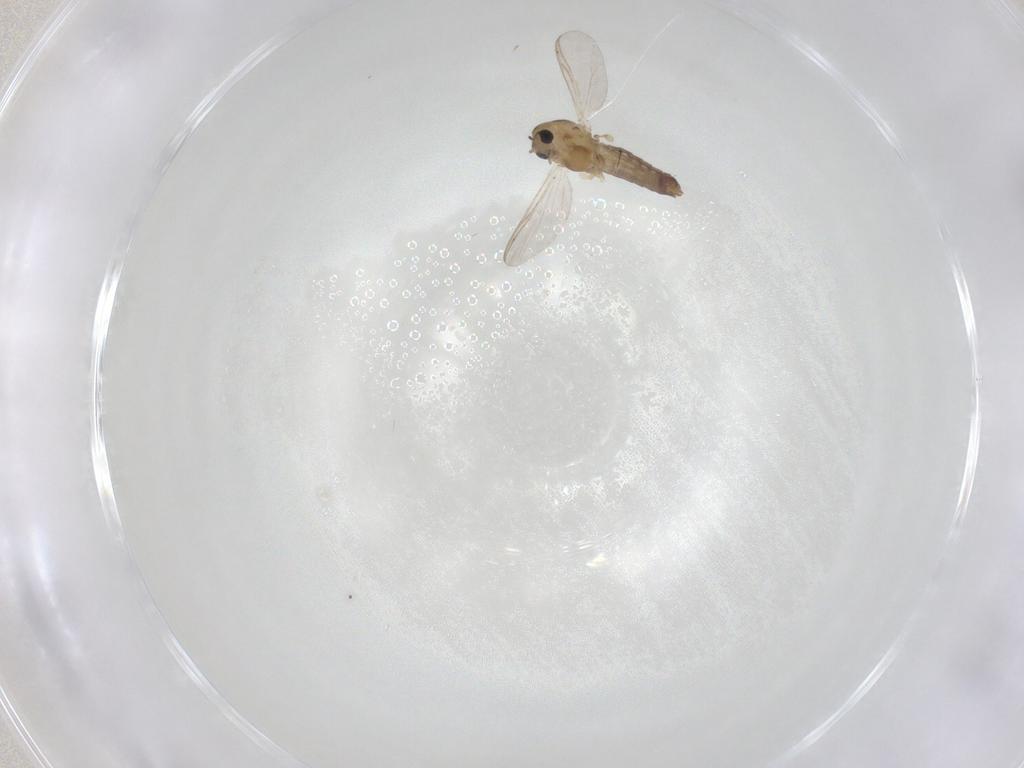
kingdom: Animalia
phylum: Arthropoda
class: Insecta
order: Diptera
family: Chironomidae
